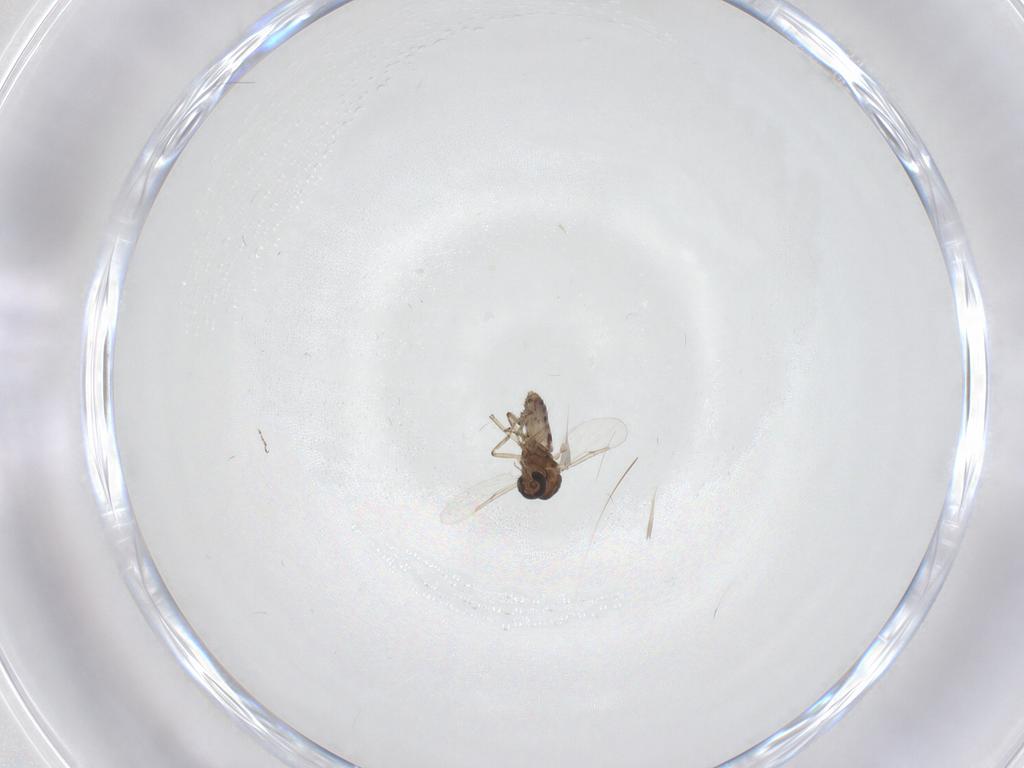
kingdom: Animalia
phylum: Arthropoda
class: Insecta
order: Diptera
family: Ceratopogonidae
